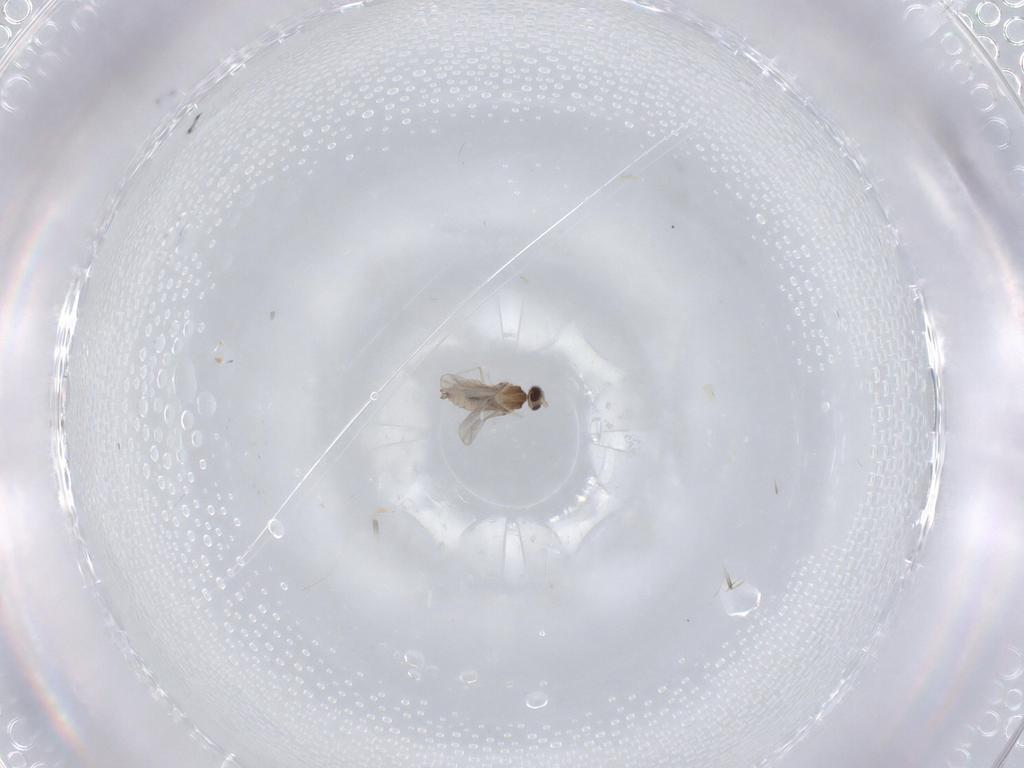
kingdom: Animalia
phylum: Arthropoda
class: Insecta
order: Diptera
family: Cecidomyiidae
